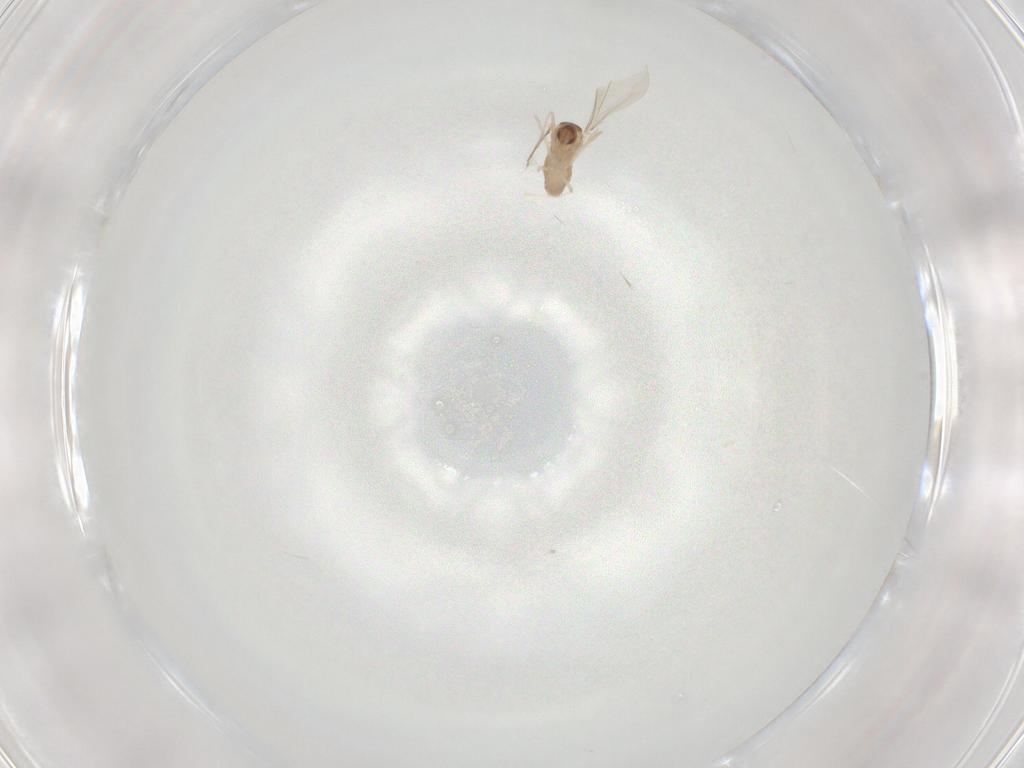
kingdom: Animalia
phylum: Arthropoda
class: Insecta
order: Diptera
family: Cecidomyiidae
